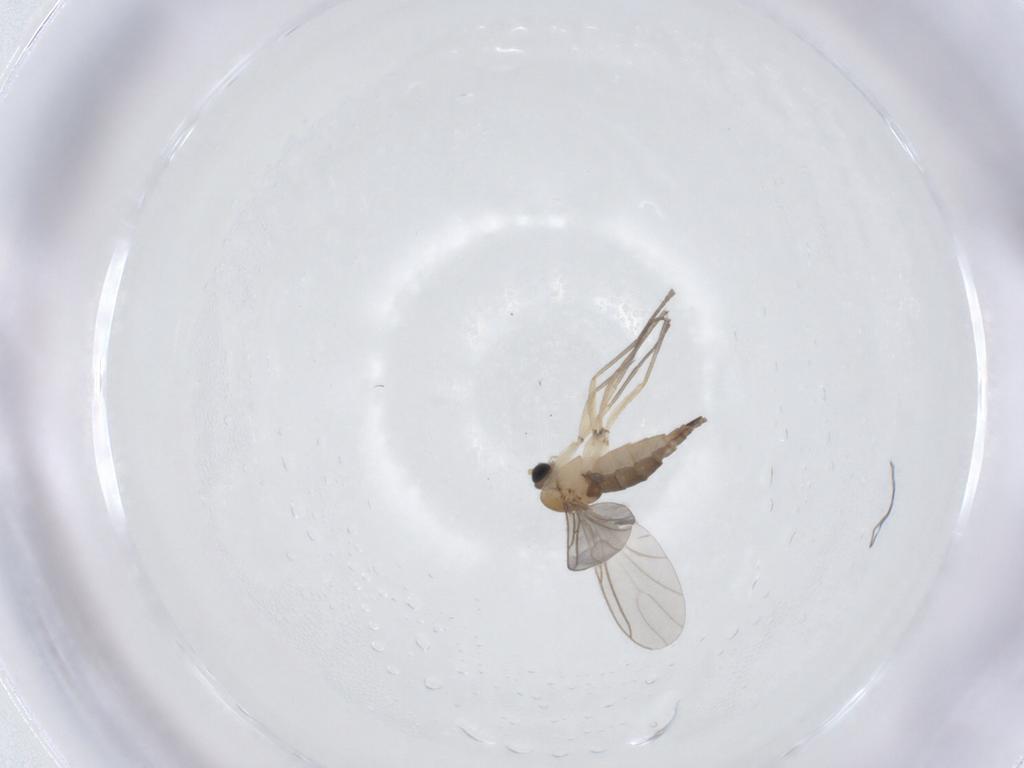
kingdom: Animalia
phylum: Arthropoda
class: Insecta
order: Diptera
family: Sciaridae
